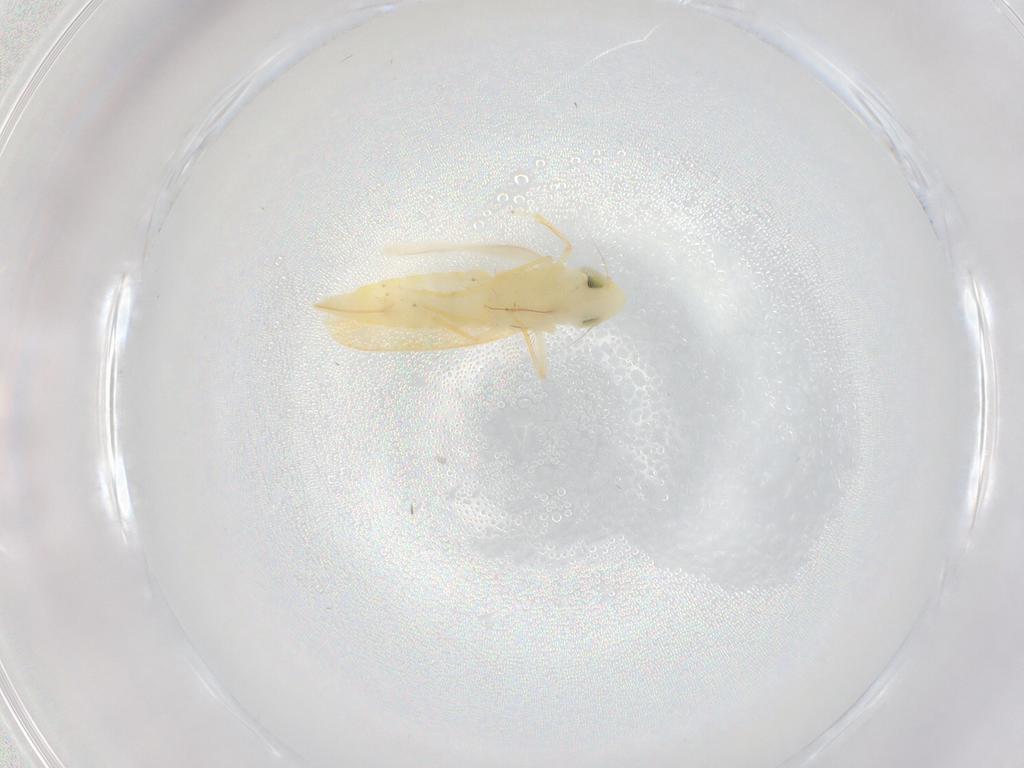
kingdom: Animalia
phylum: Arthropoda
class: Insecta
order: Hemiptera
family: Cicadellidae
